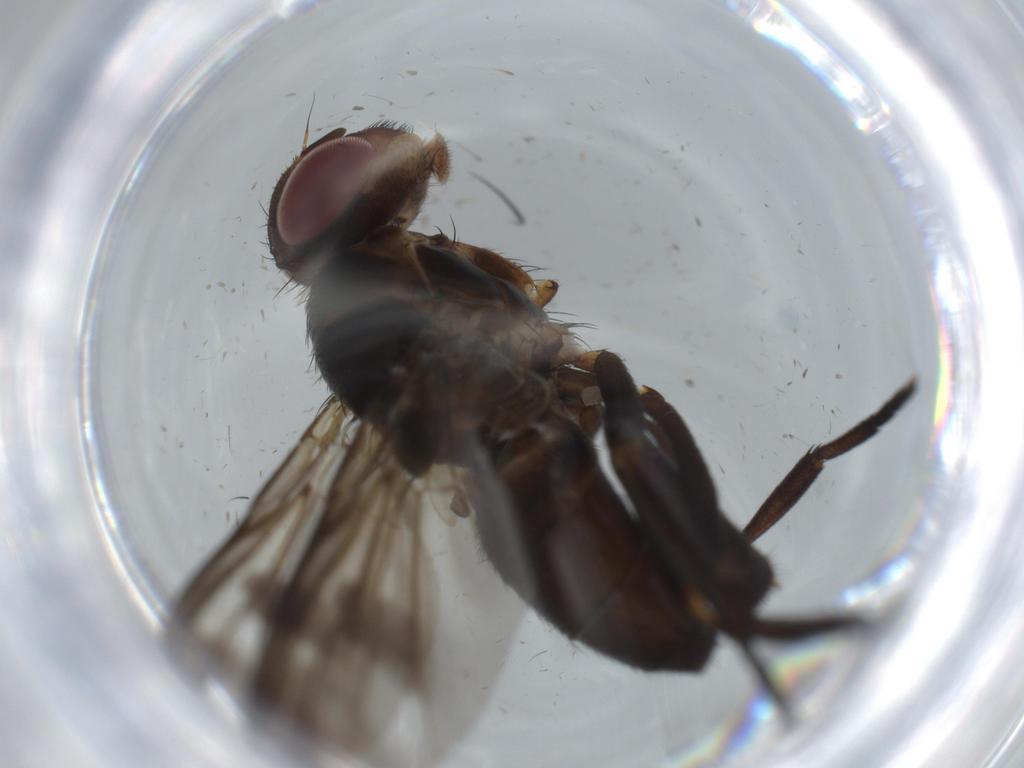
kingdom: Animalia
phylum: Arthropoda
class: Insecta
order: Diptera
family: Calliphoridae
